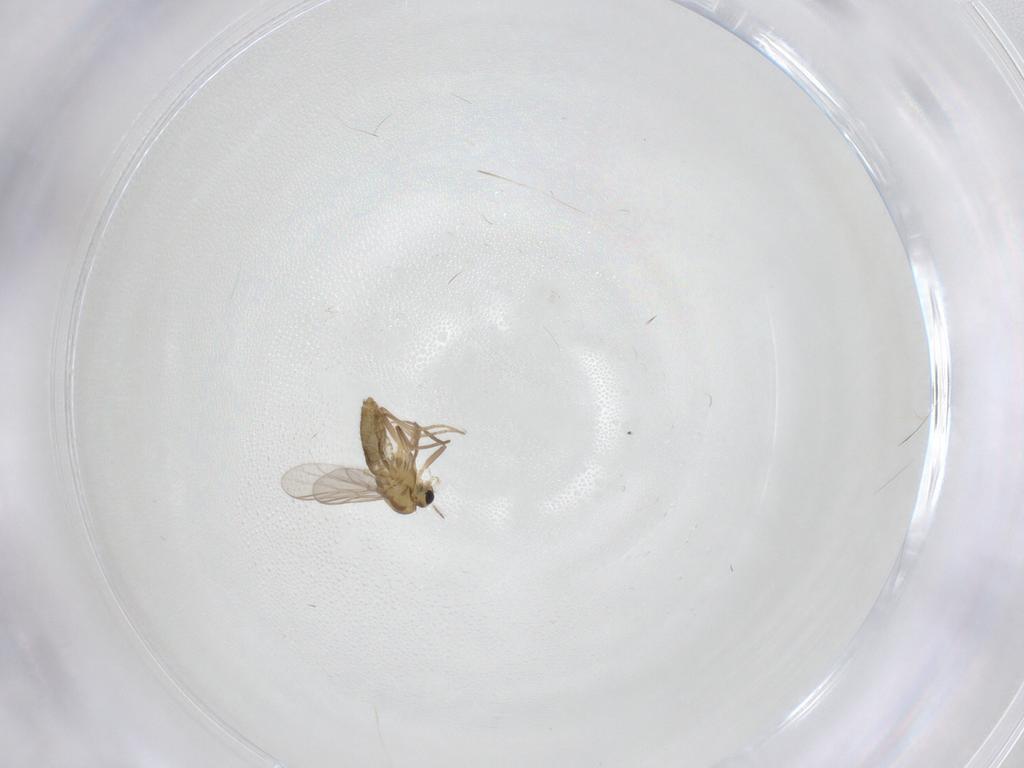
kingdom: Animalia
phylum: Arthropoda
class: Insecta
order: Diptera
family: Chironomidae
